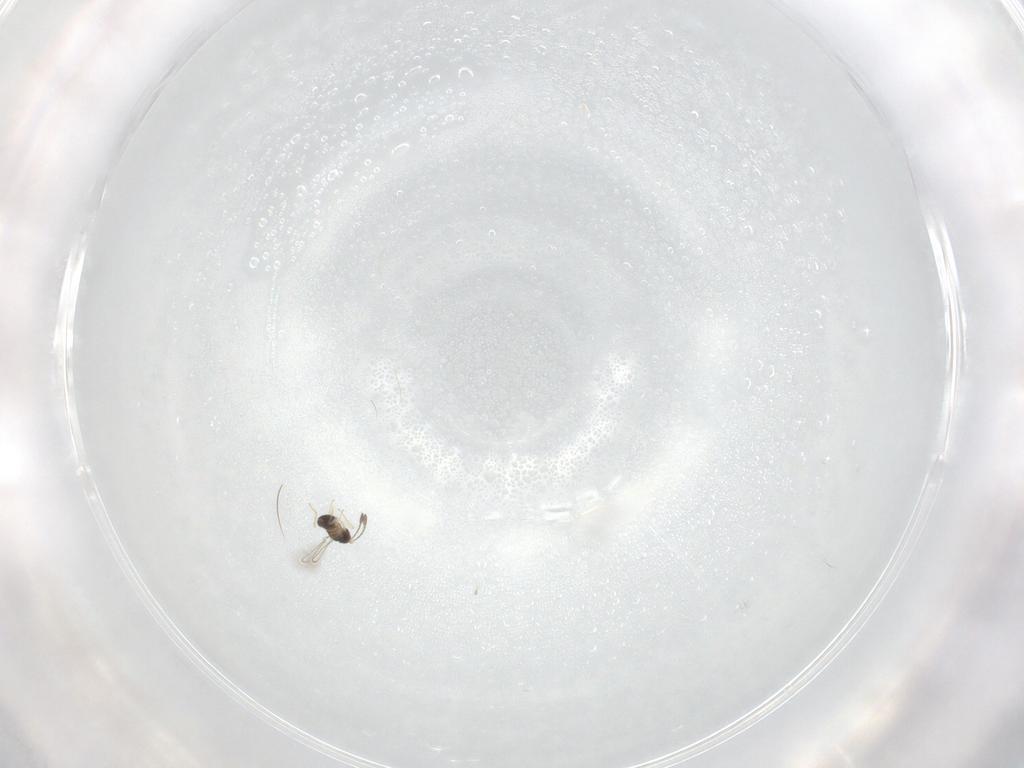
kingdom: Animalia
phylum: Arthropoda
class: Insecta
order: Hymenoptera
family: Mymaridae
